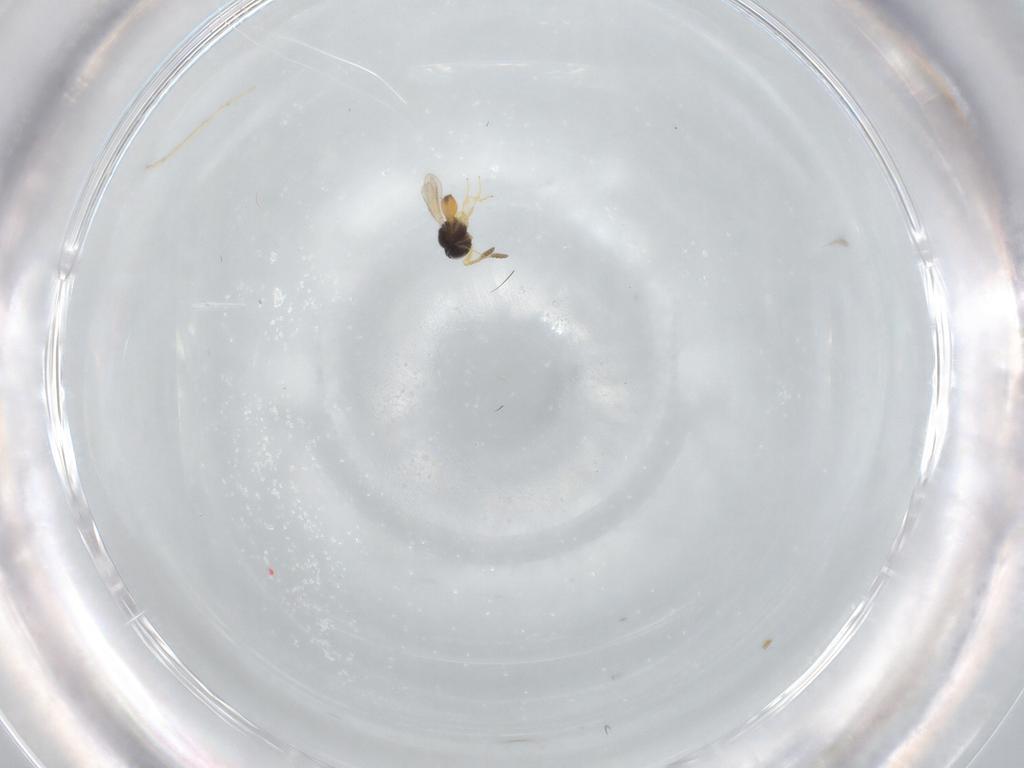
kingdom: Animalia
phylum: Arthropoda
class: Insecta
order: Hymenoptera
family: Scelionidae
